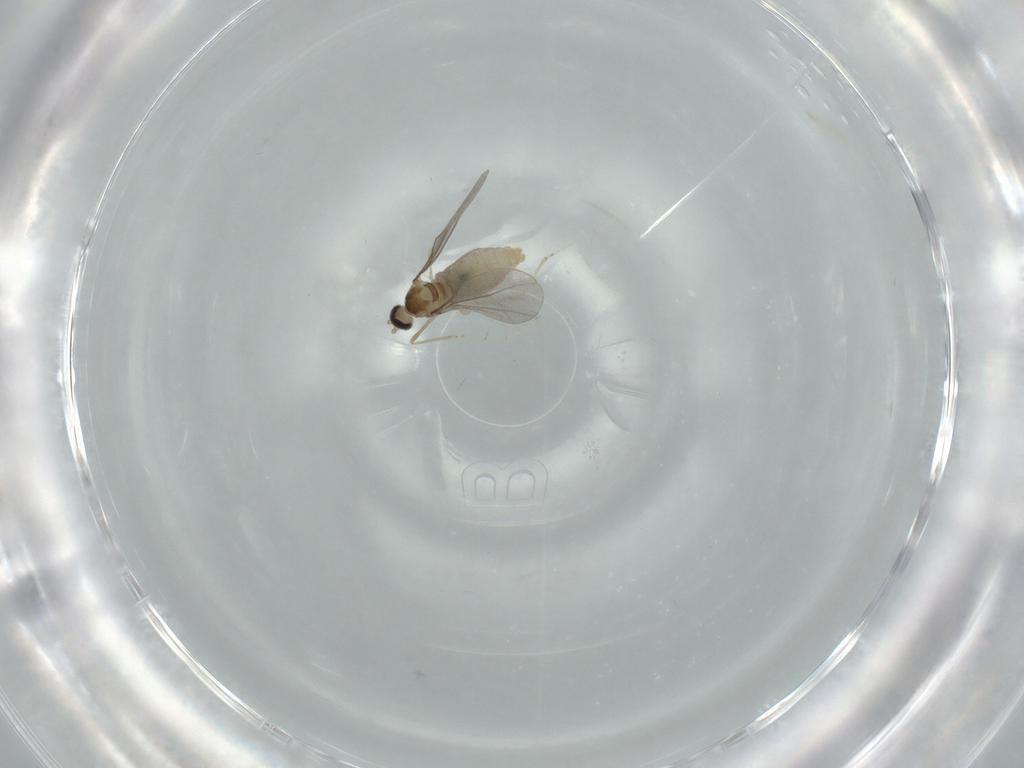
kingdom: Animalia
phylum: Arthropoda
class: Insecta
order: Diptera
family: Cecidomyiidae
